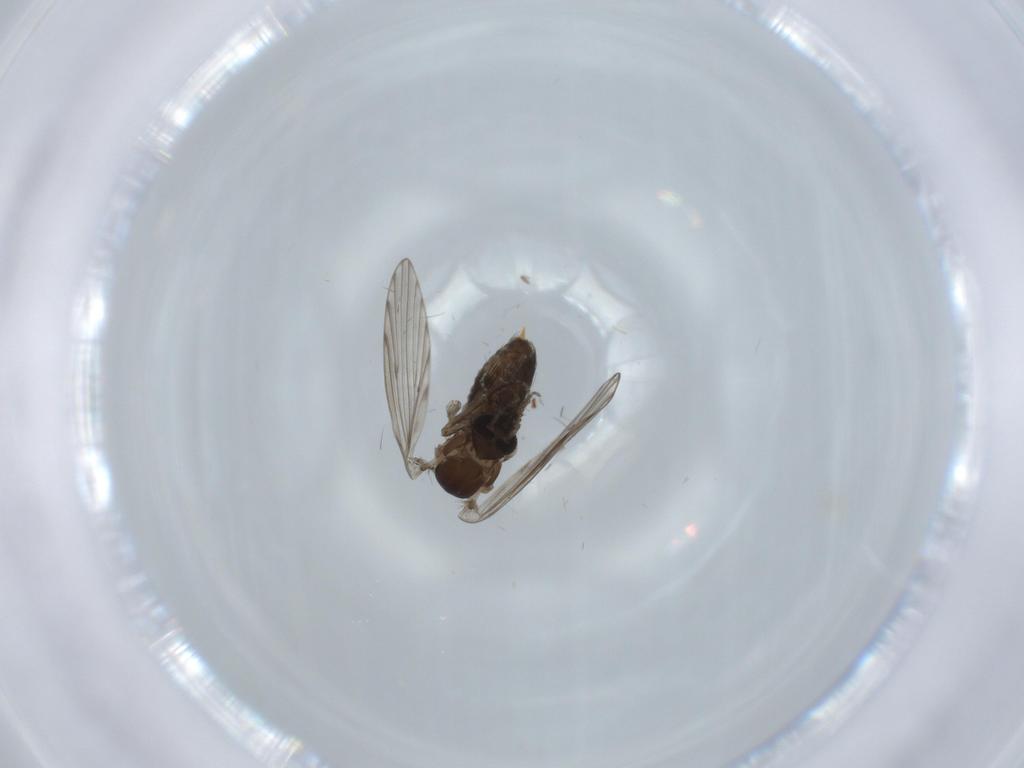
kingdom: Animalia
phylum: Arthropoda
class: Insecta
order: Diptera
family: Psychodidae
